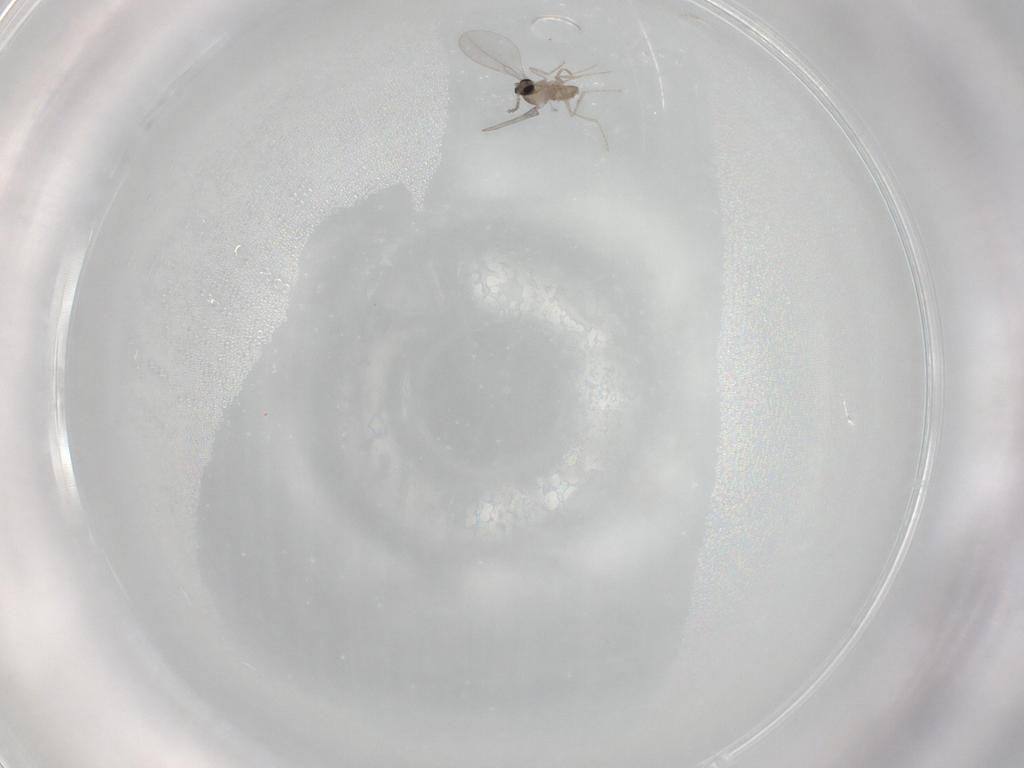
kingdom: Animalia
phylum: Arthropoda
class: Insecta
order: Diptera
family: Cecidomyiidae
